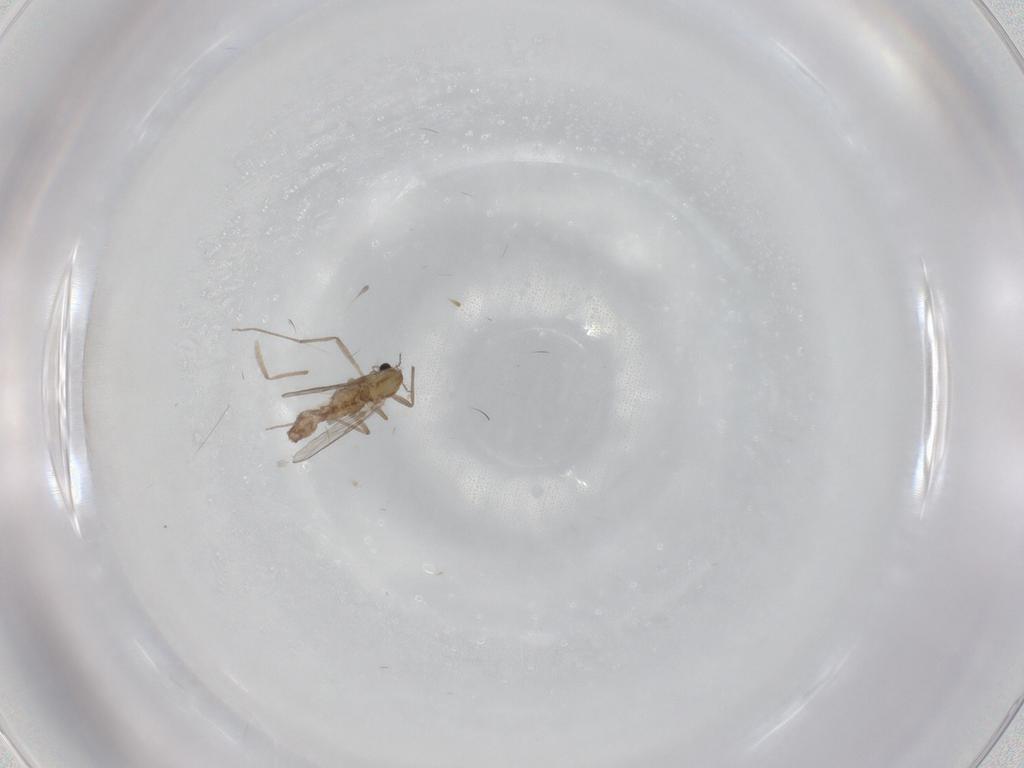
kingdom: Animalia
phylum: Arthropoda
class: Insecta
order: Diptera
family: Chironomidae
